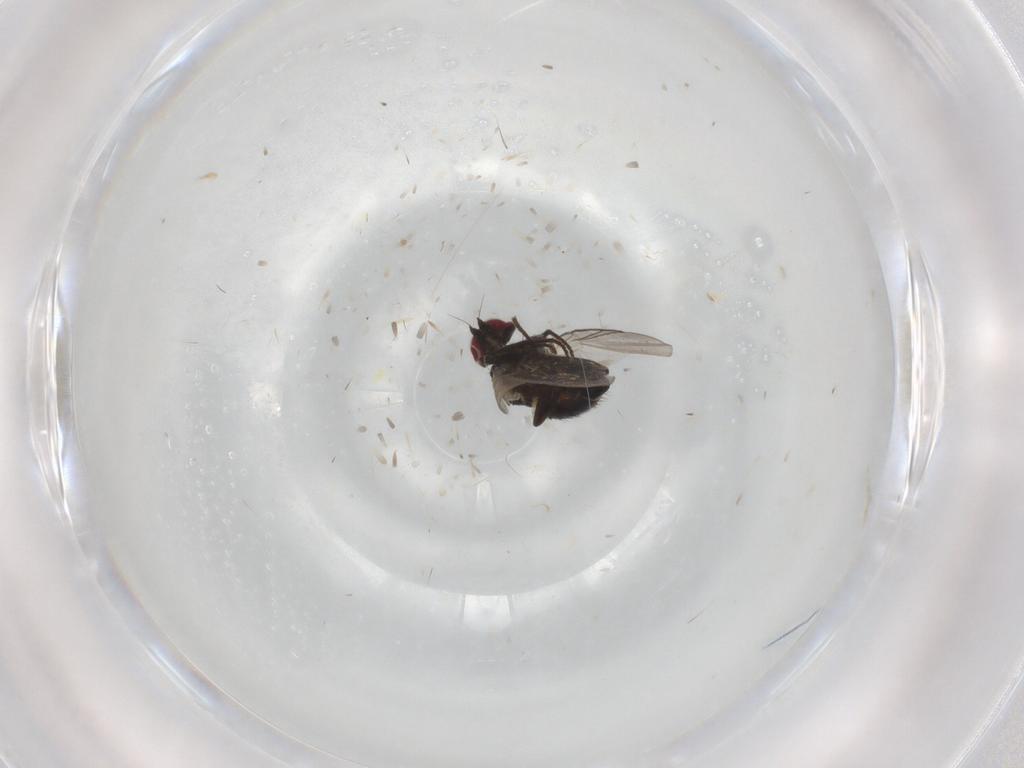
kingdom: Animalia
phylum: Arthropoda
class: Insecta
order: Diptera
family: Agromyzidae
